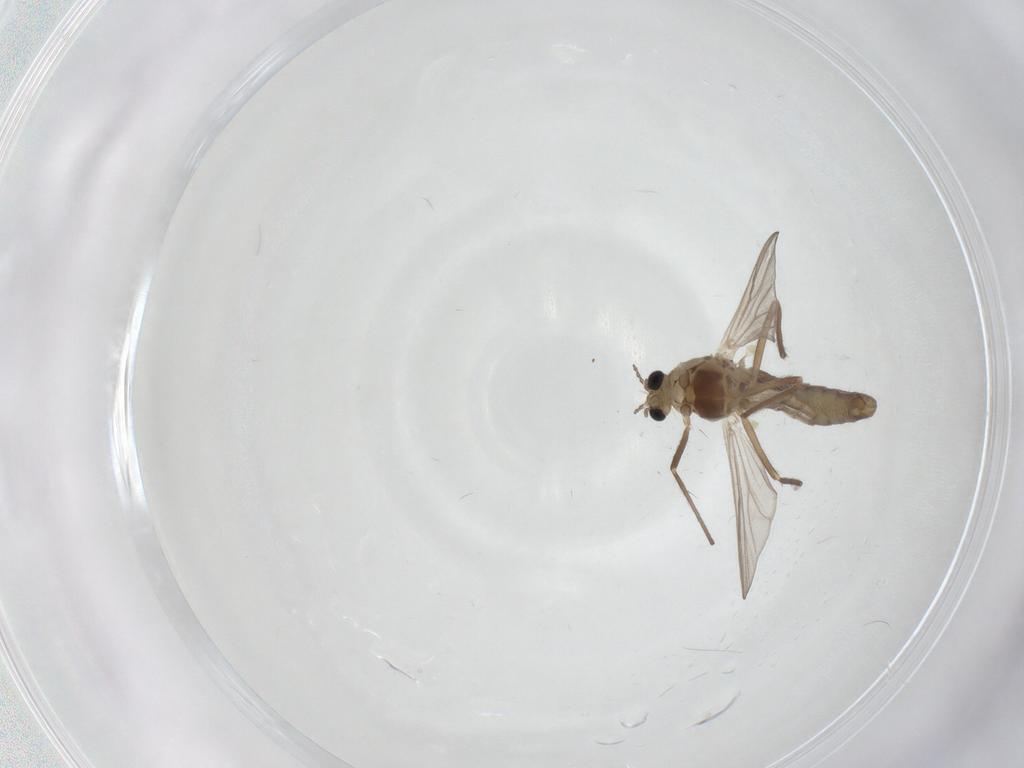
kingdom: Animalia
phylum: Arthropoda
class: Insecta
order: Diptera
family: Chironomidae
